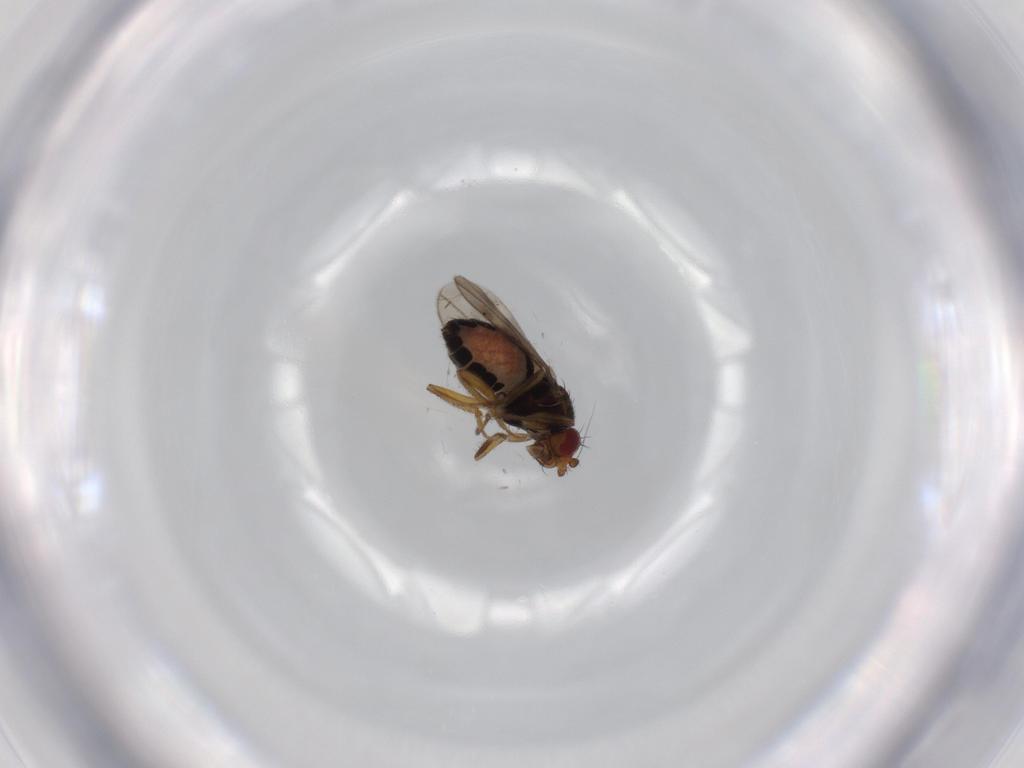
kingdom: Animalia
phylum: Arthropoda
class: Insecta
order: Diptera
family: Sphaeroceridae
